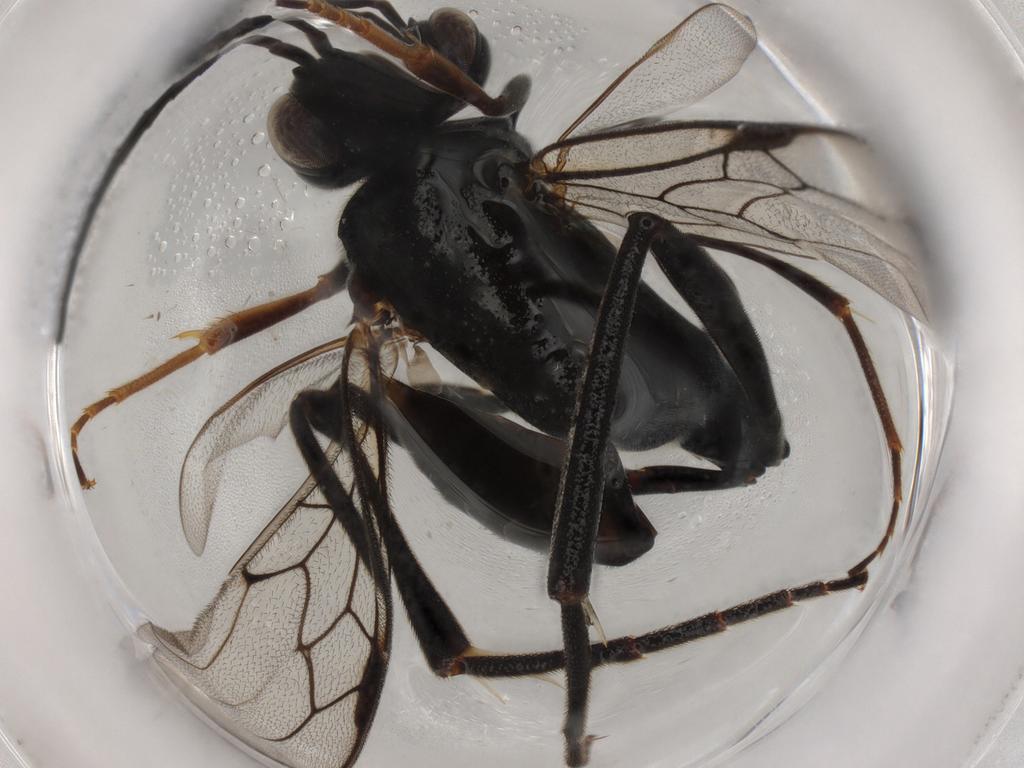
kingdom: Animalia
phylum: Arthropoda
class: Insecta
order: Hymenoptera
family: Evaniidae
